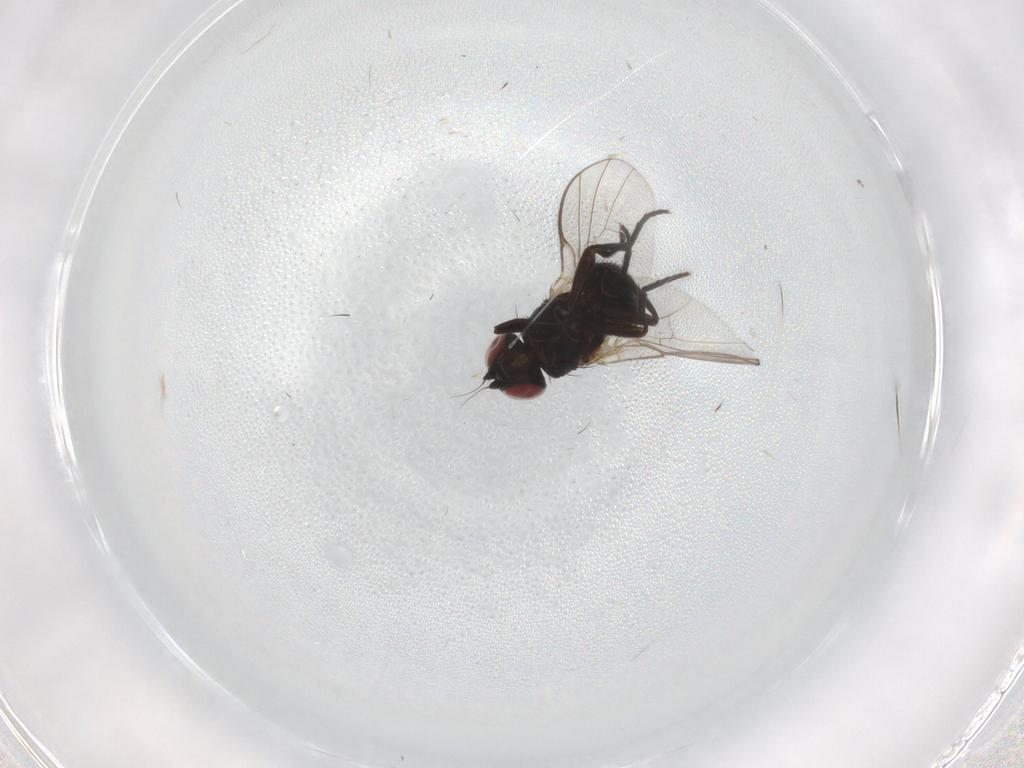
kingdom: Animalia
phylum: Arthropoda
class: Insecta
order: Diptera
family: Agromyzidae
